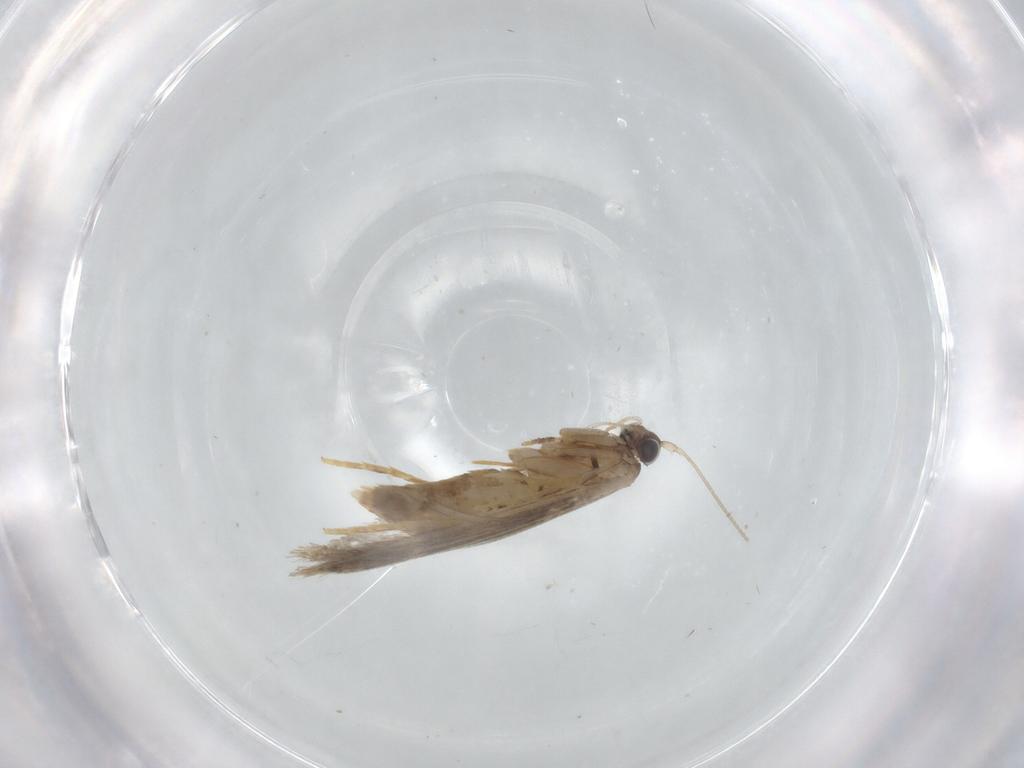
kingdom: Animalia
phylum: Arthropoda
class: Insecta
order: Lepidoptera
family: Tineidae
